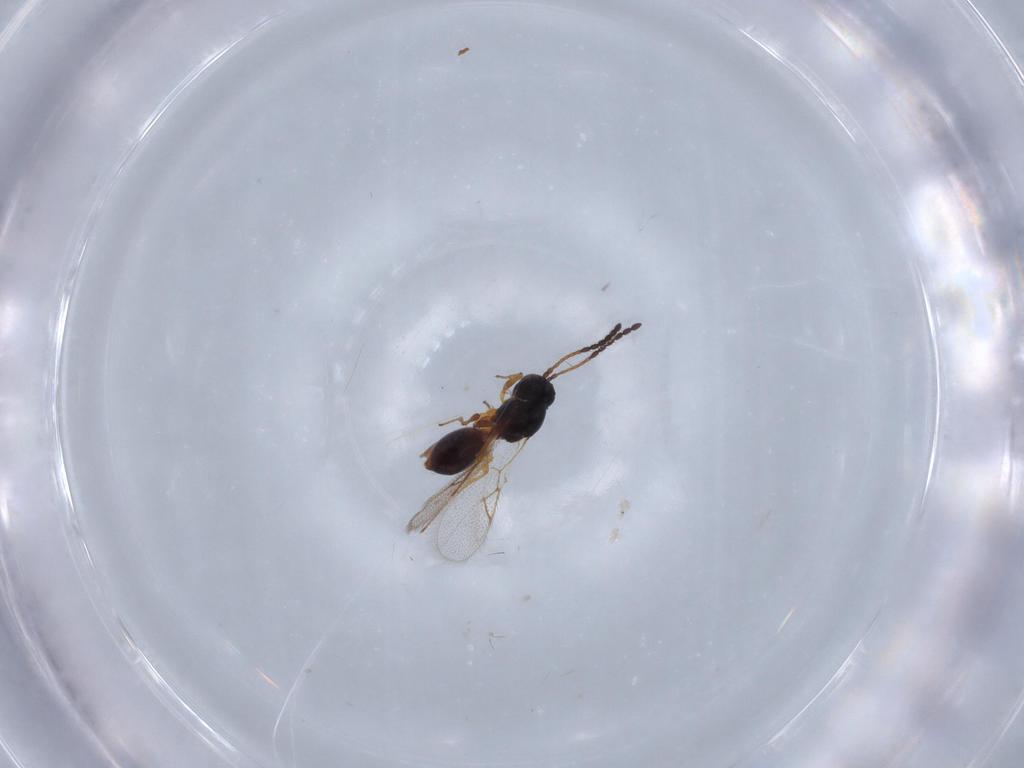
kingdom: Animalia
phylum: Arthropoda
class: Insecta
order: Hymenoptera
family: Figitidae
